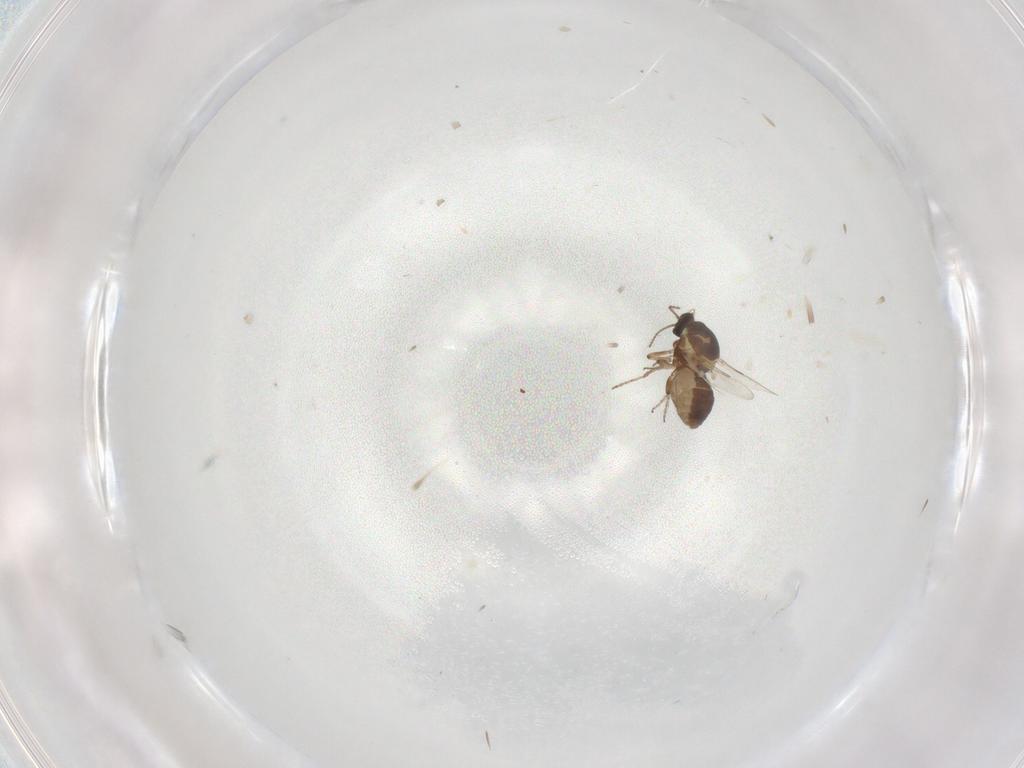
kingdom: Animalia
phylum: Arthropoda
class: Insecta
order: Diptera
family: Ceratopogonidae
